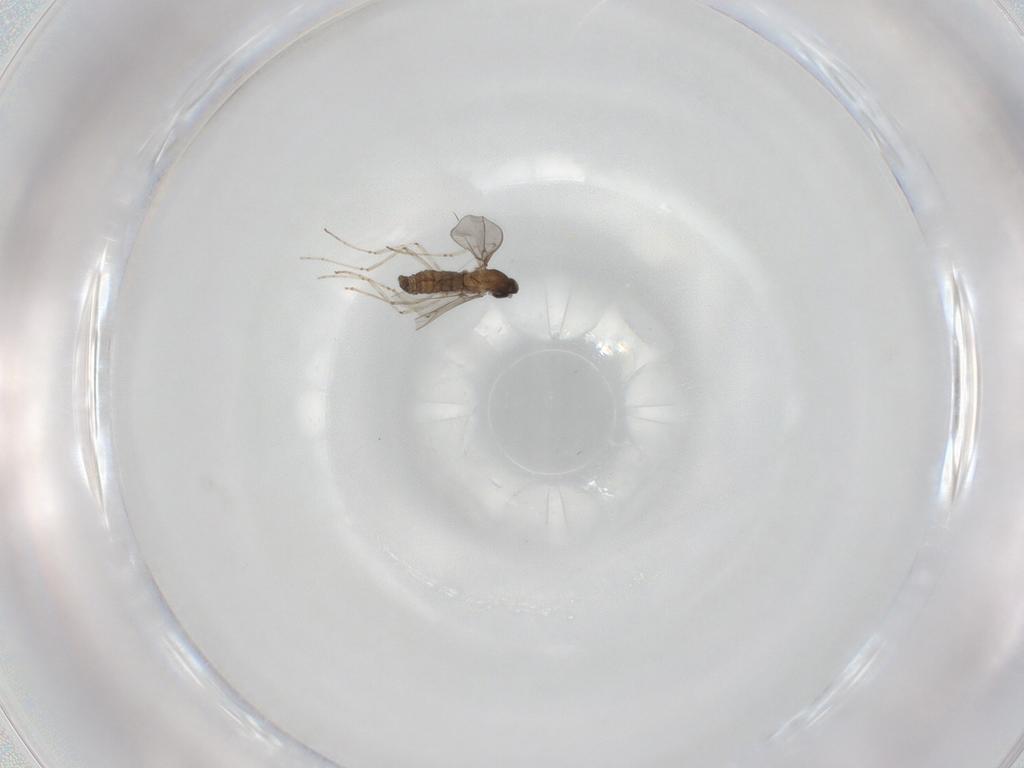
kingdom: Animalia
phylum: Arthropoda
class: Insecta
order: Diptera
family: Cecidomyiidae
